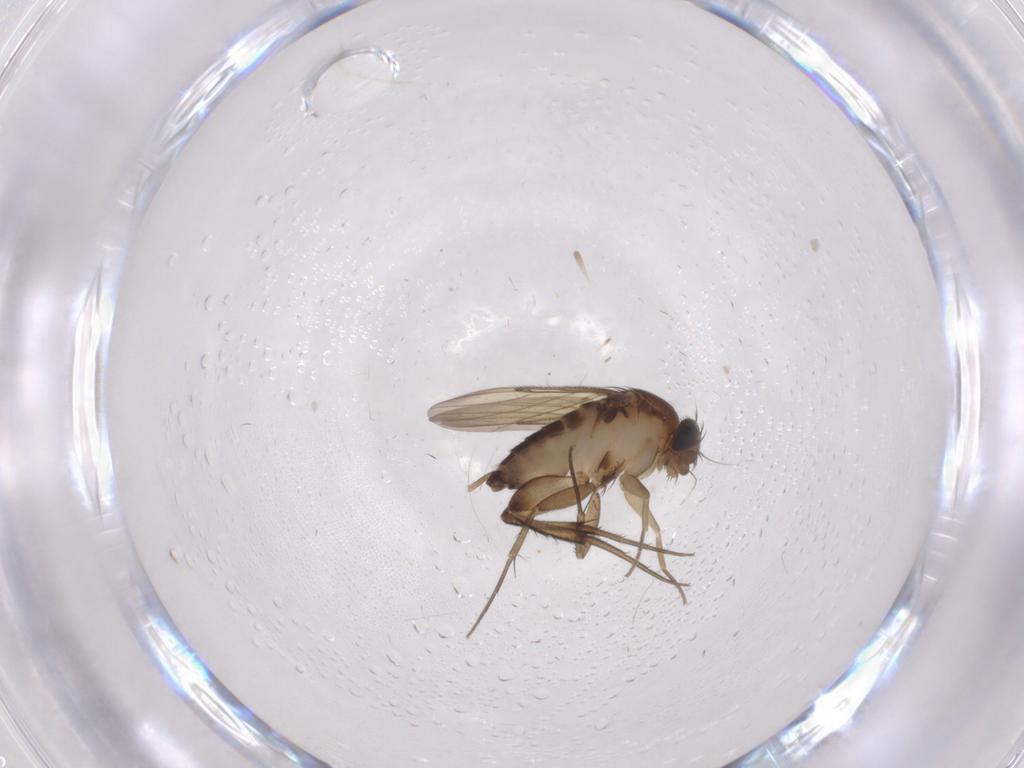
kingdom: Animalia
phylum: Arthropoda
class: Insecta
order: Diptera
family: Phoridae
